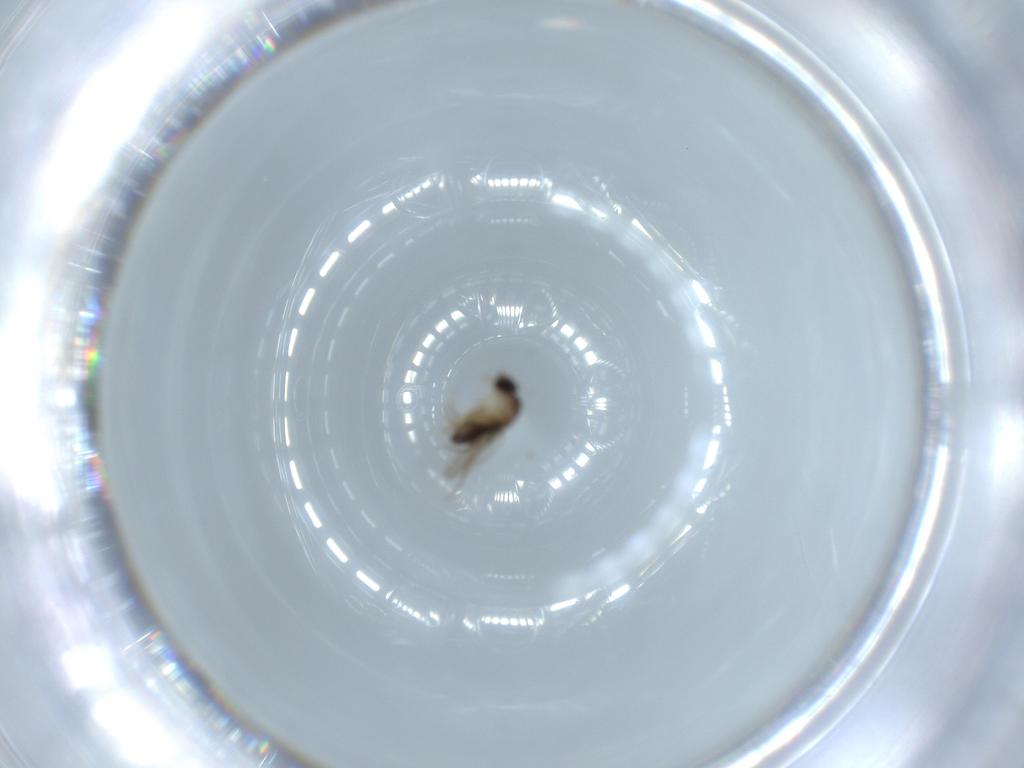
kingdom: Animalia
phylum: Arthropoda
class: Insecta
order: Diptera
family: Phoridae
